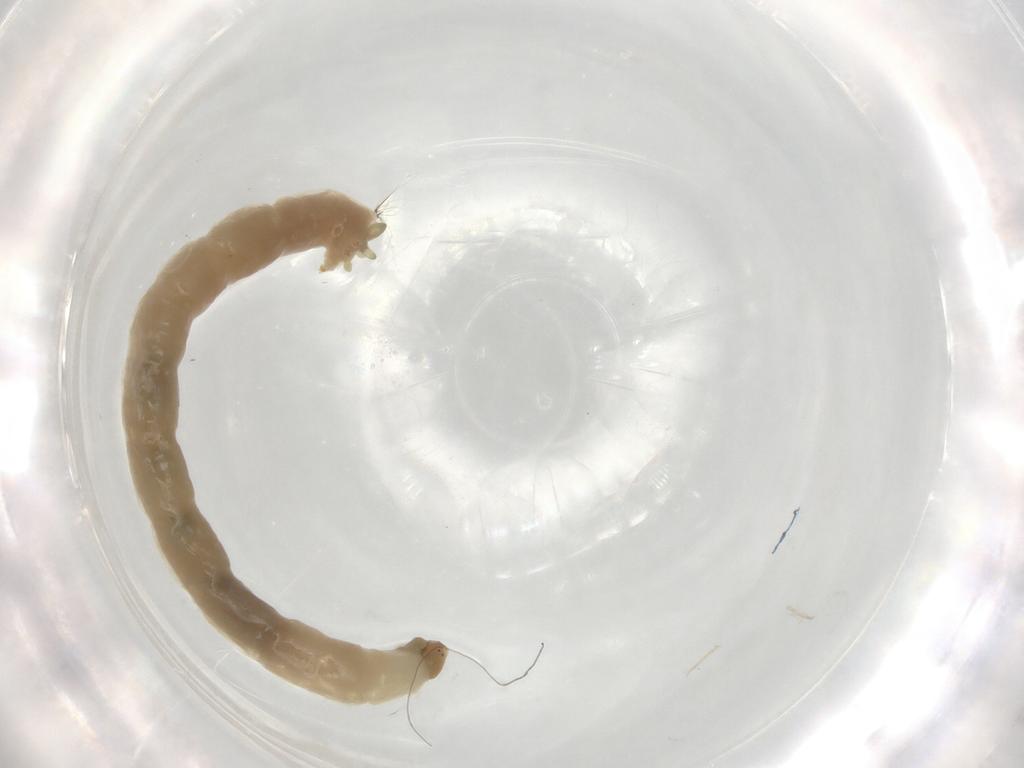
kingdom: Animalia
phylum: Arthropoda
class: Insecta
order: Diptera
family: Chironomidae
